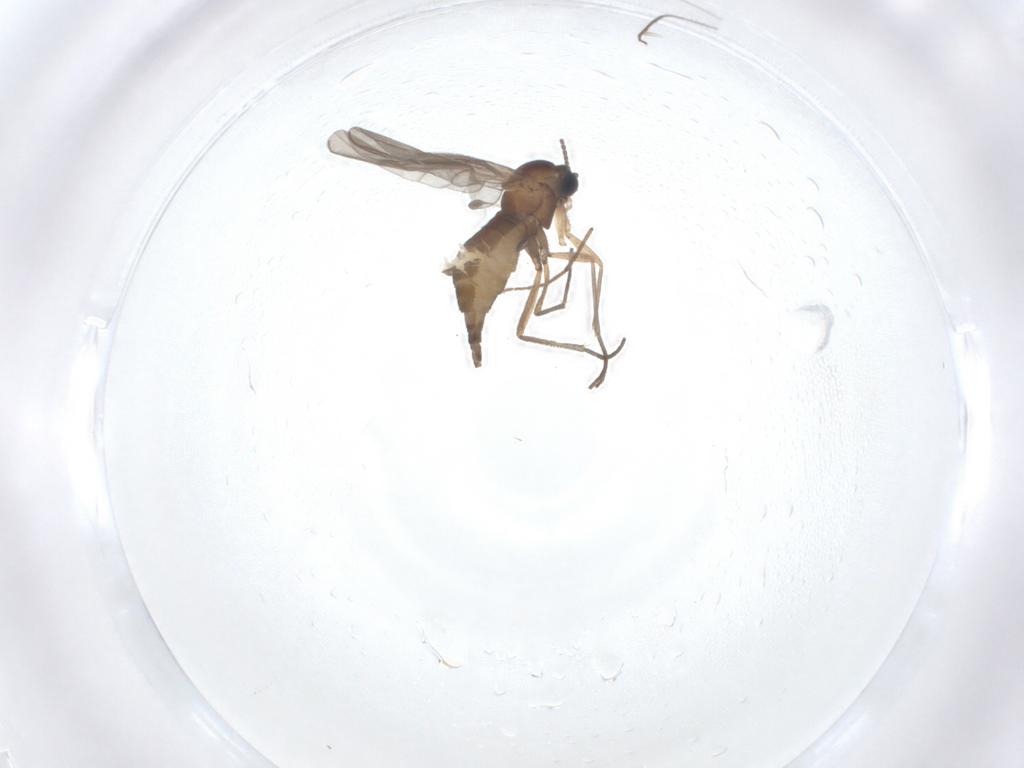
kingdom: Animalia
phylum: Arthropoda
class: Insecta
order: Diptera
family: Sciaridae
